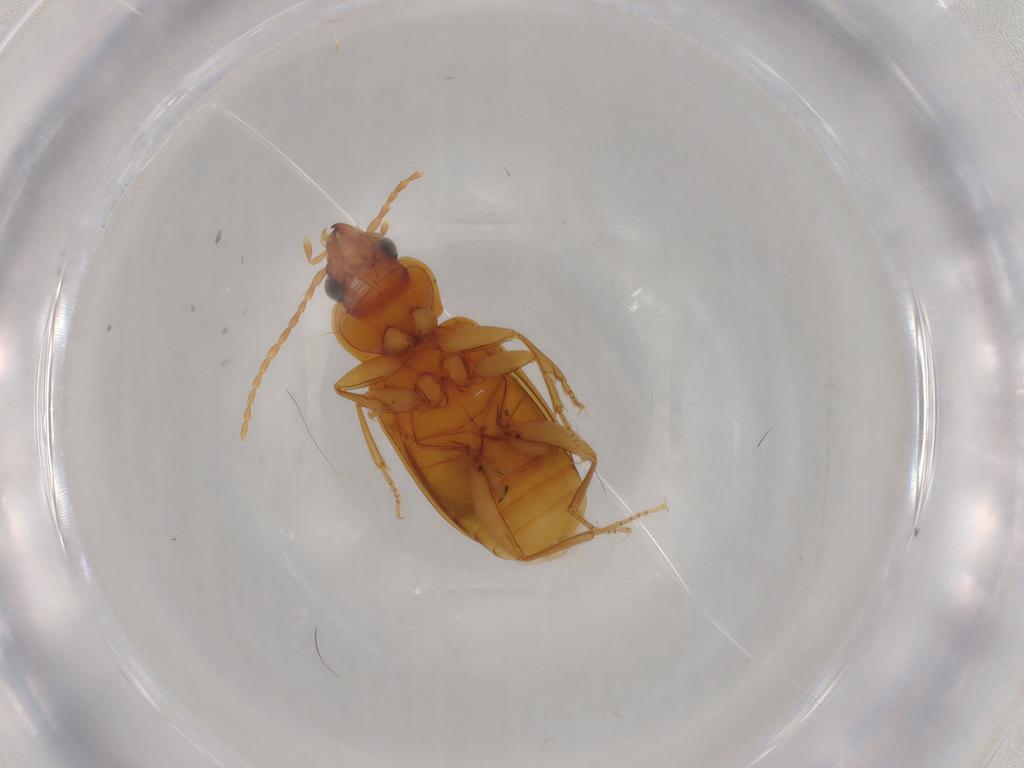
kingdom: Animalia
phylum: Arthropoda
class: Insecta
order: Coleoptera
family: Carabidae
